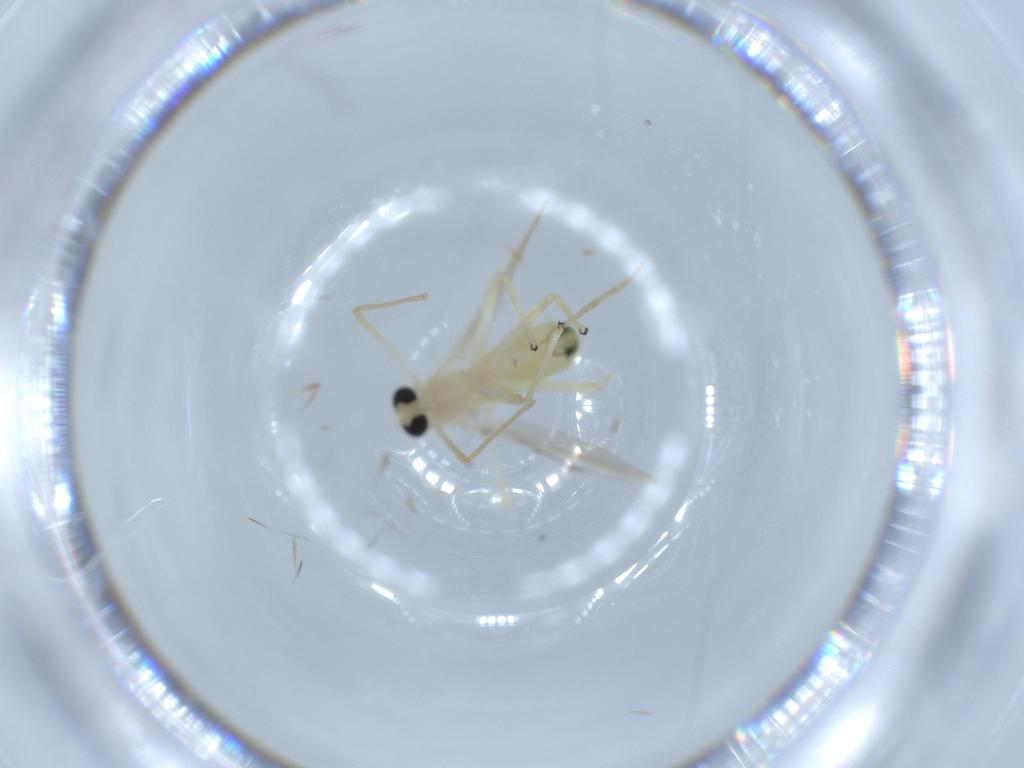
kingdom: Animalia
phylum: Arthropoda
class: Insecta
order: Diptera
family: Chironomidae
